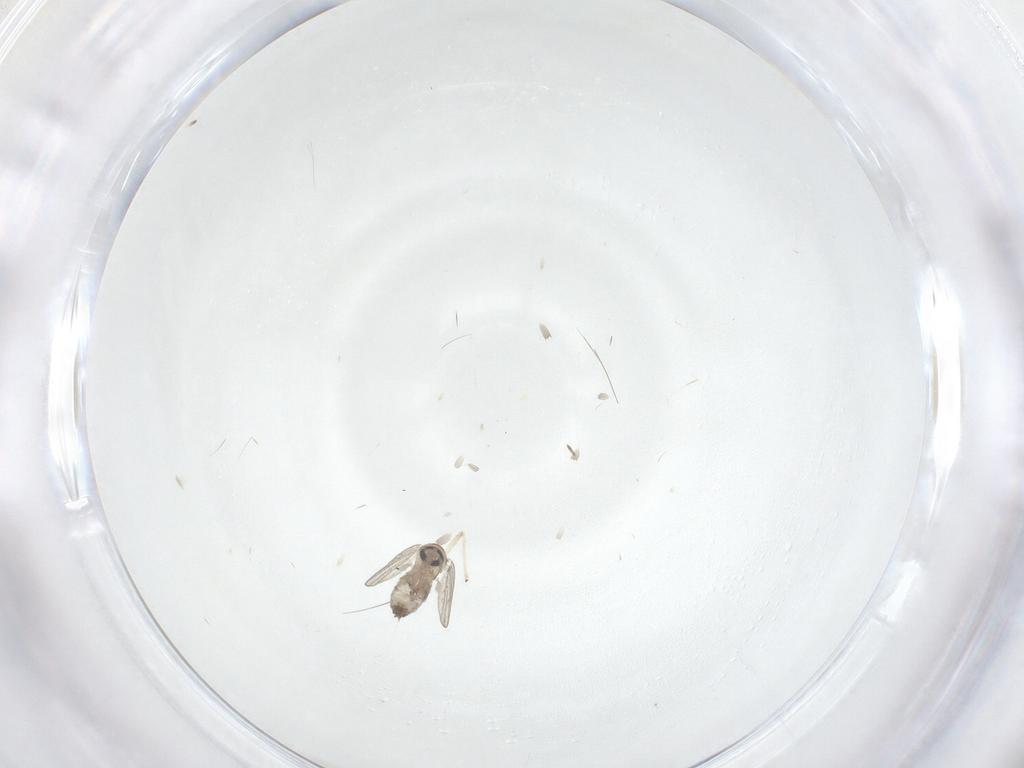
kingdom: Animalia
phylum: Arthropoda
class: Insecta
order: Diptera
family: Psychodidae
